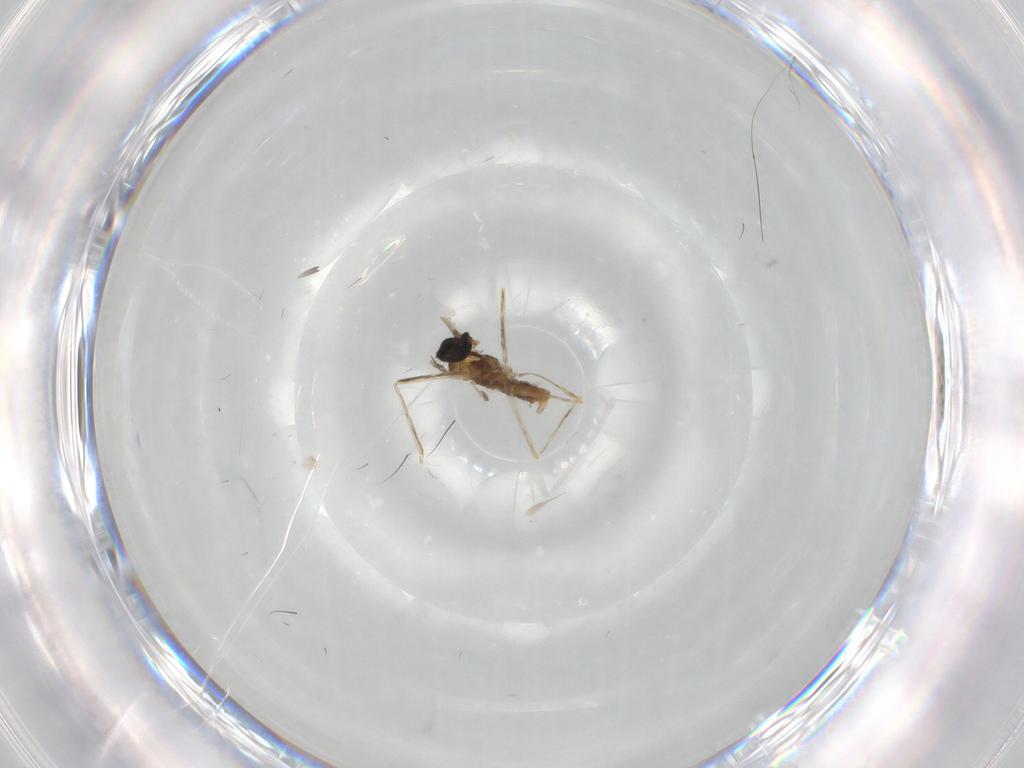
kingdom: Animalia
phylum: Arthropoda
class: Insecta
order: Diptera
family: Cecidomyiidae
